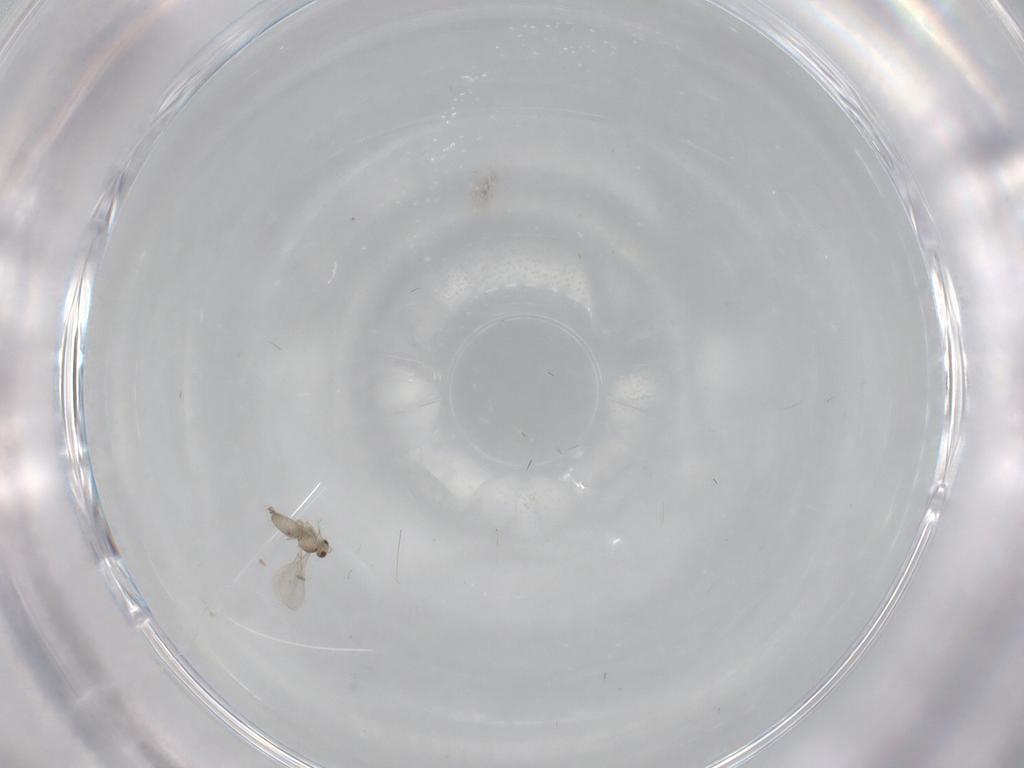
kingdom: Animalia
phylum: Arthropoda
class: Insecta
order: Diptera
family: Cecidomyiidae
